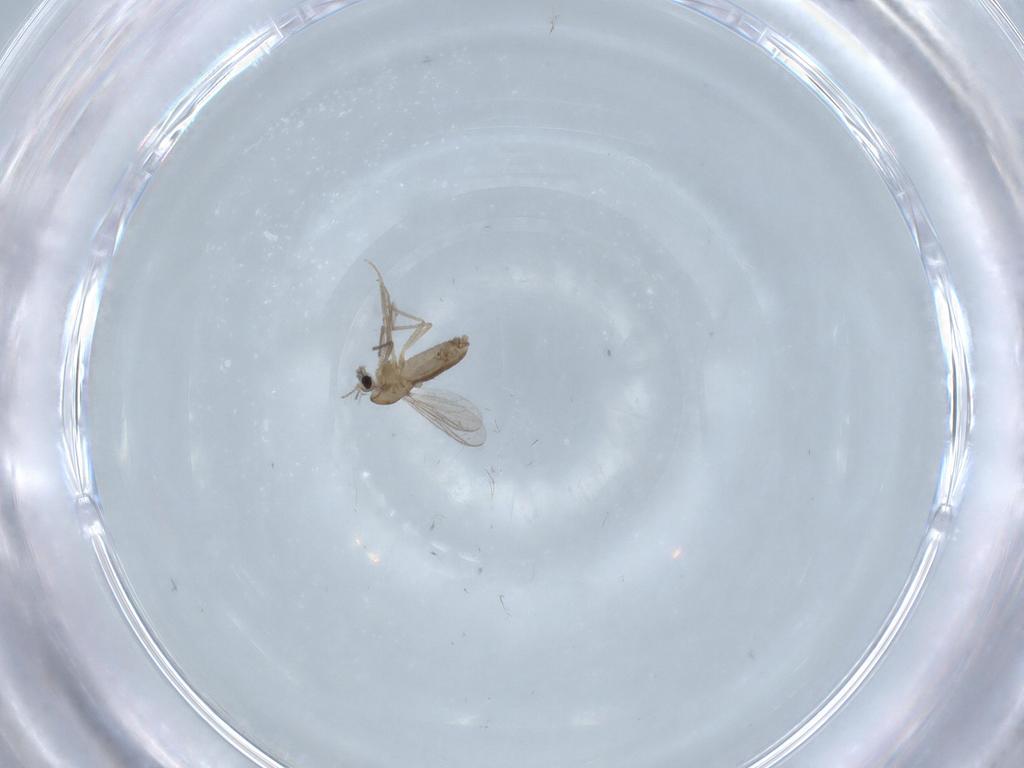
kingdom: Animalia
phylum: Arthropoda
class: Insecta
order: Diptera
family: Chironomidae
